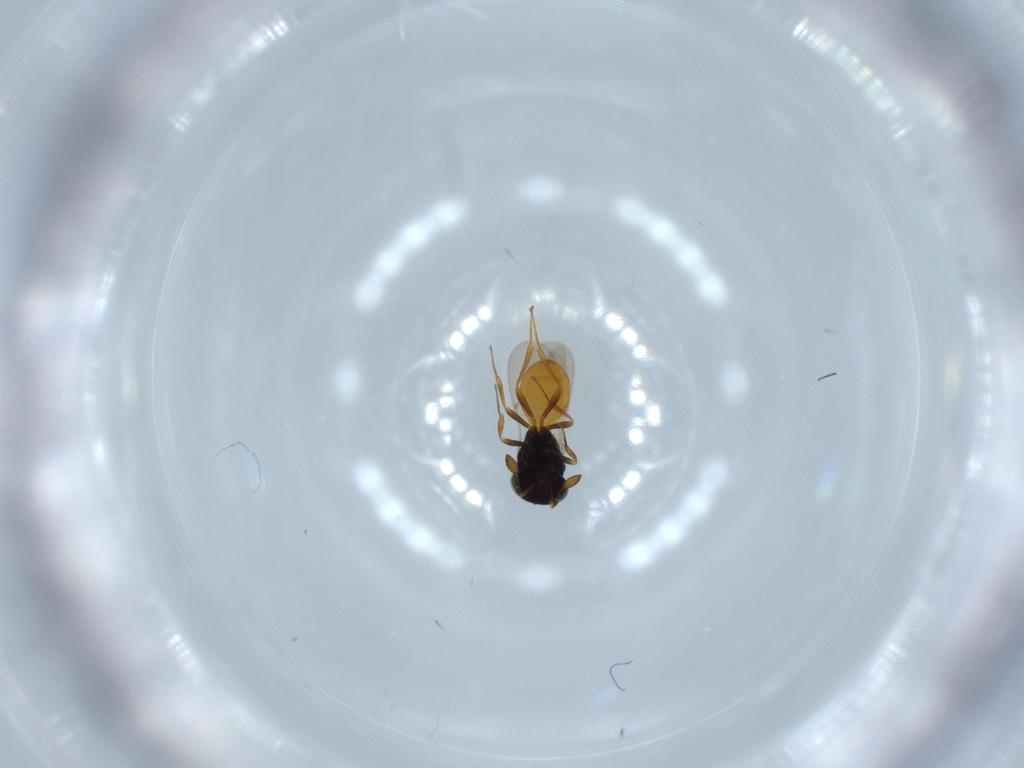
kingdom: Animalia
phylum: Arthropoda
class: Insecta
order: Hymenoptera
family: Scelionidae
